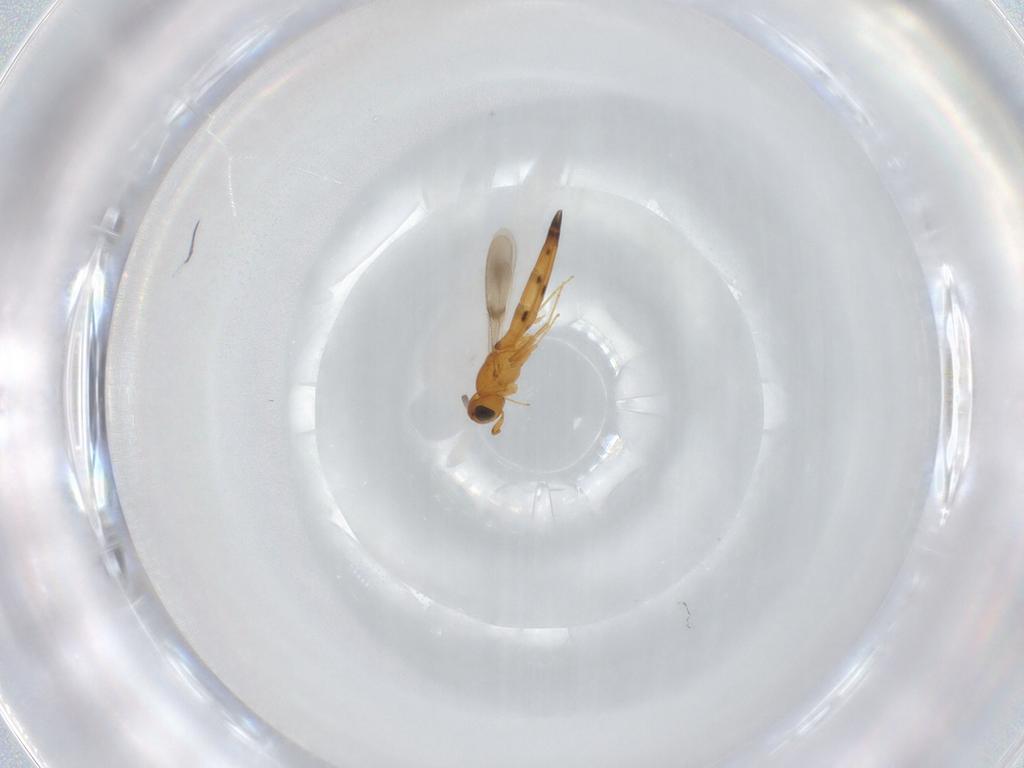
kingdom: Animalia
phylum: Arthropoda
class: Insecta
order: Hymenoptera
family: Scelionidae
